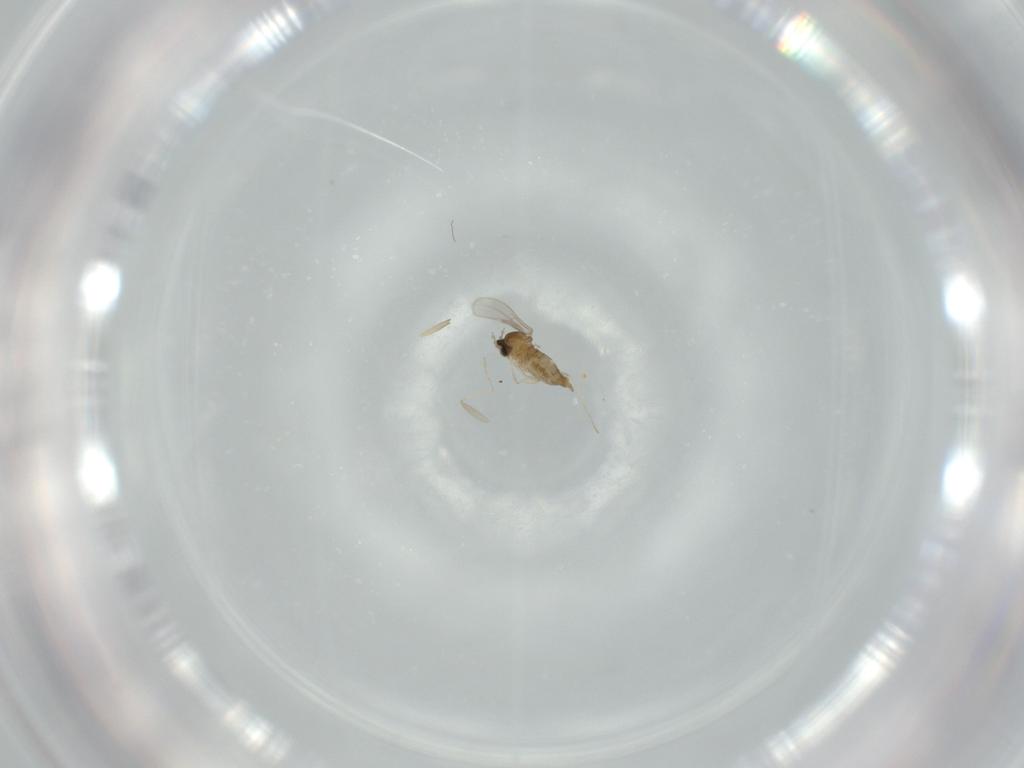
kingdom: Animalia
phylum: Arthropoda
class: Insecta
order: Diptera
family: Cecidomyiidae
